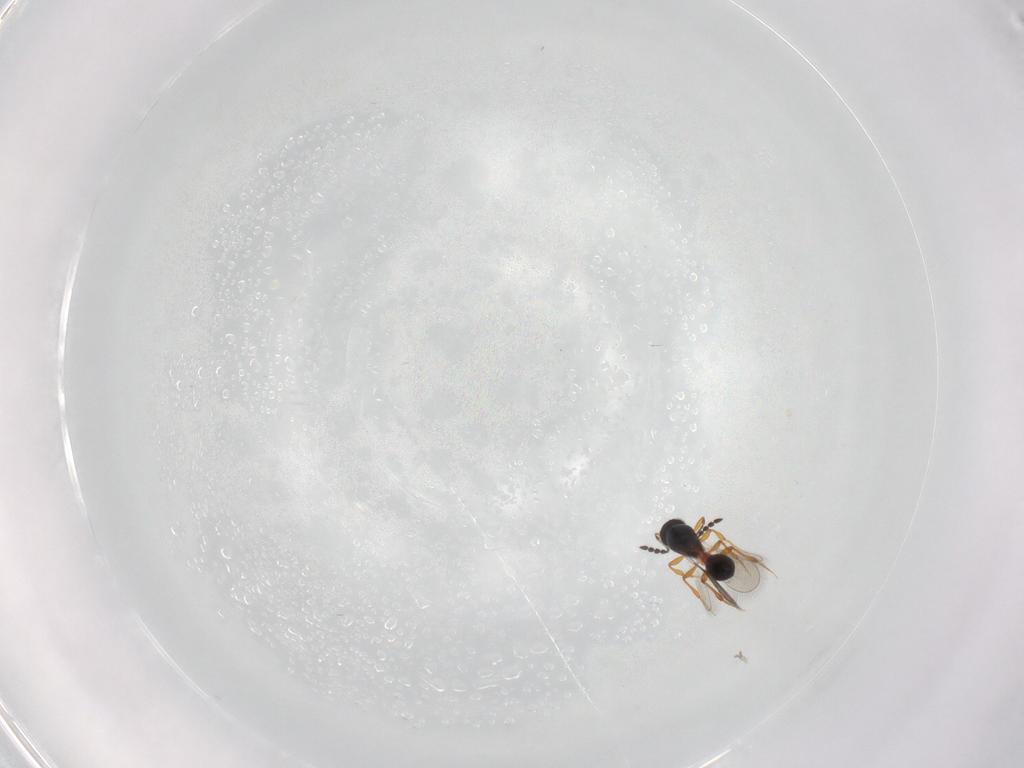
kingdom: Animalia
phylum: Arthropoda
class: Insecta
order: Hymenoptera
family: Platygastridae
